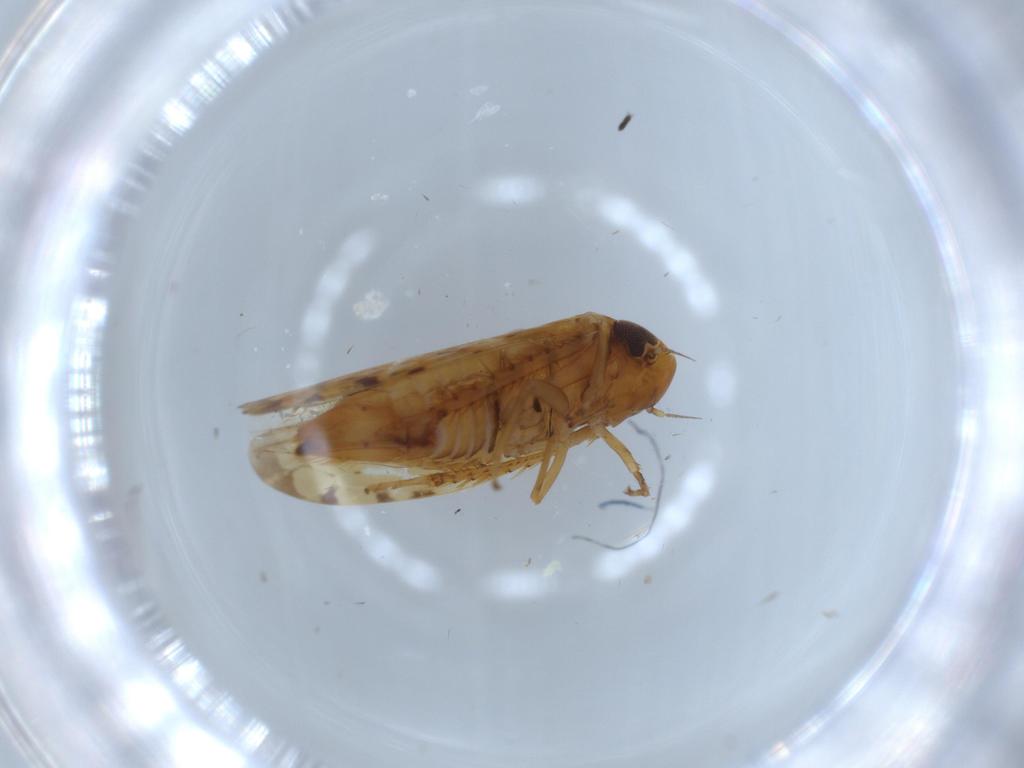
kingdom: Animalia
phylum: Arthropoda
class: Insecta
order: Hemiptera
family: Cicadellidae
